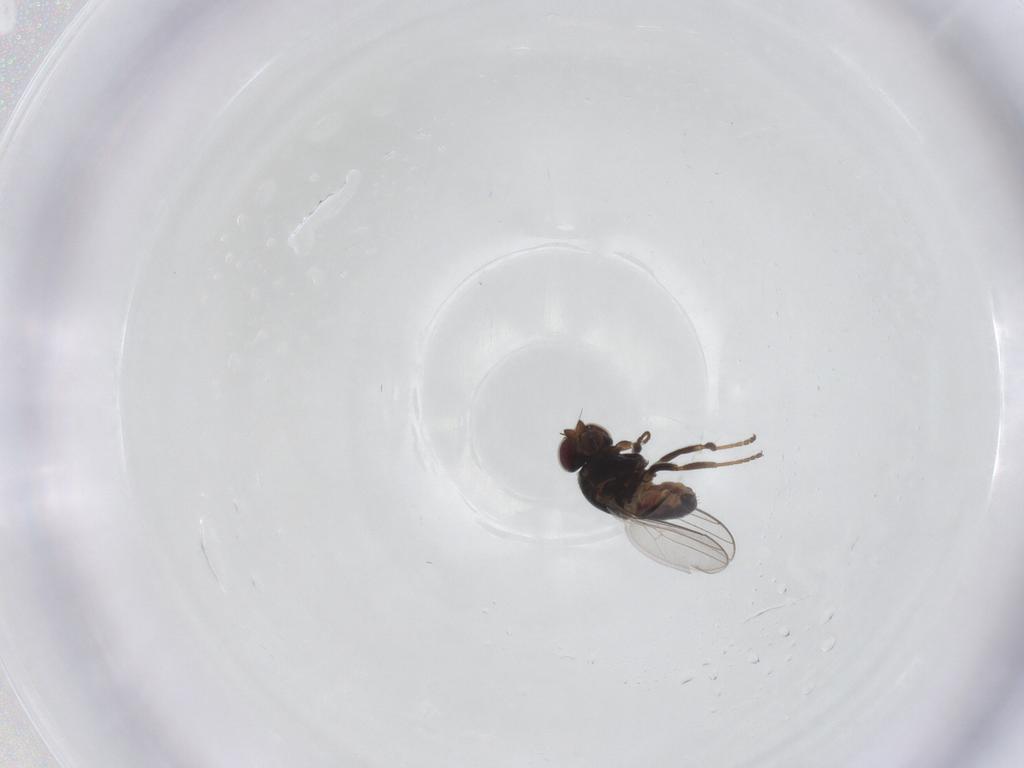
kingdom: Animalia
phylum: Arthropoda
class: Insecta
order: Diptera
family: Chloropidae
